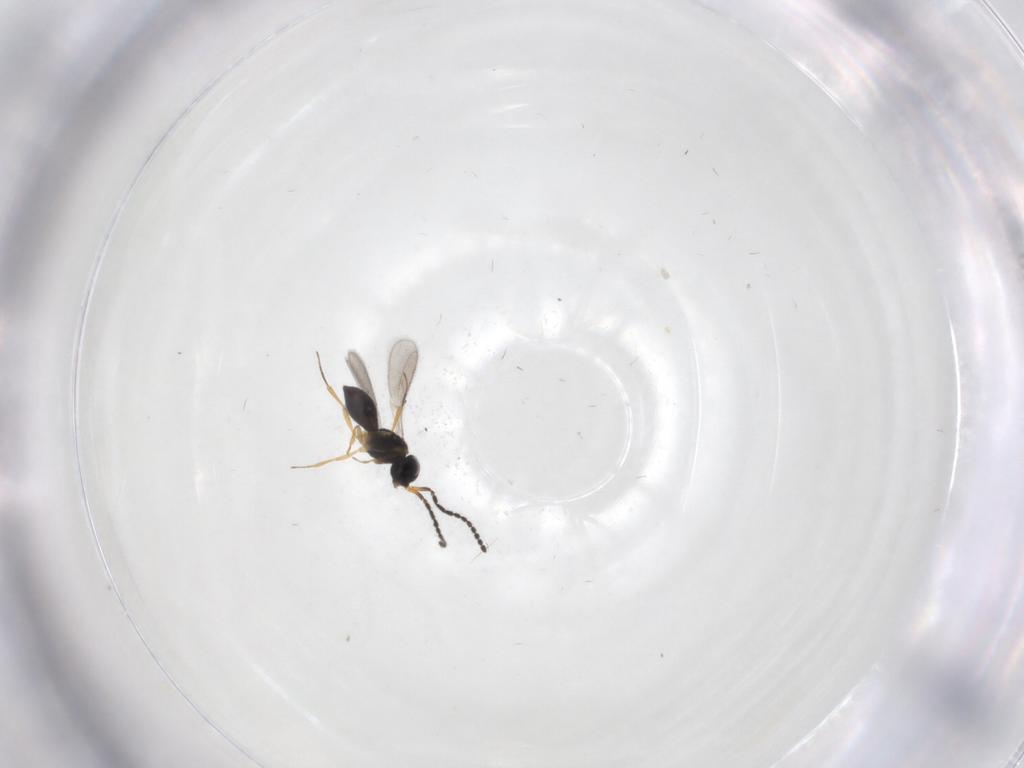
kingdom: Animalia
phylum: Arthropoda
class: Insecta
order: Hymenoptera
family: Scelionidae
